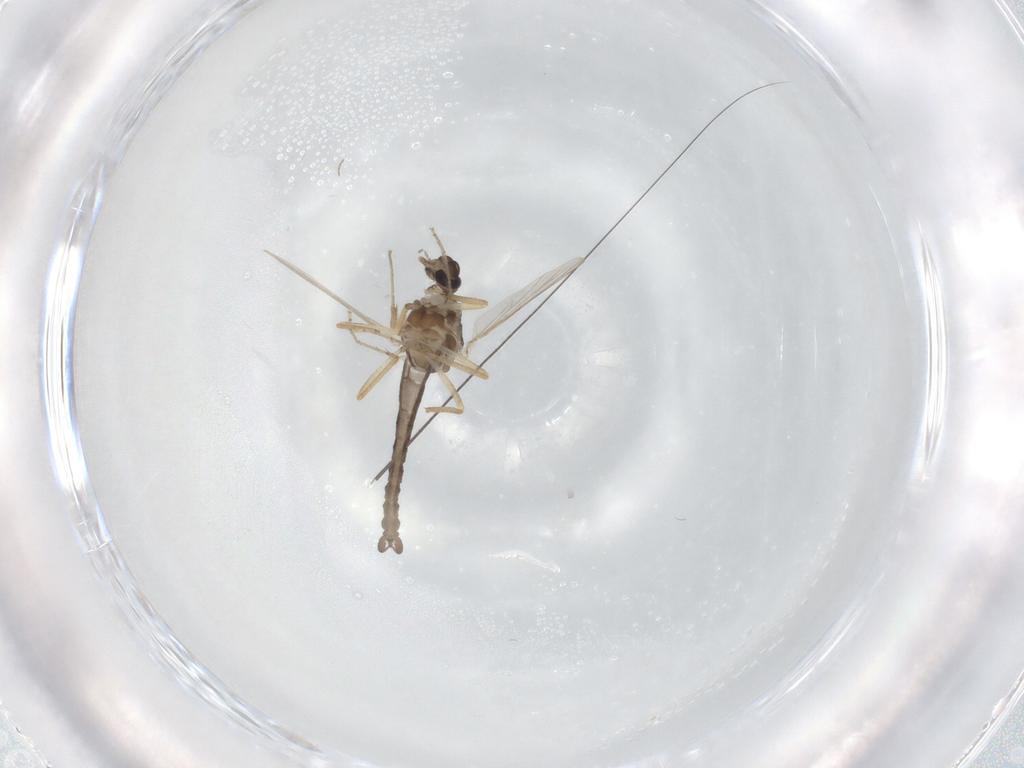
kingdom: Animalia
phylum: Arthropoda
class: Insecta
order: Diptera
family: Ceratopogonidae
